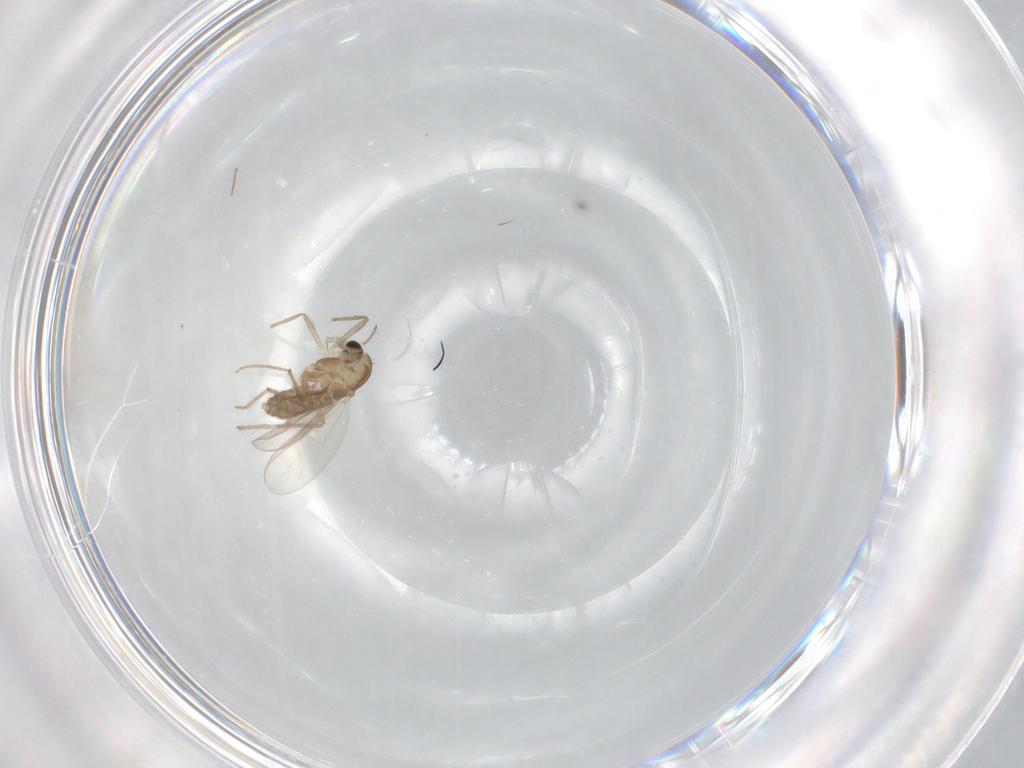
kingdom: Animalia
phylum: Arthropoda
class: Insecta
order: Diptera
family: Chironomidae
